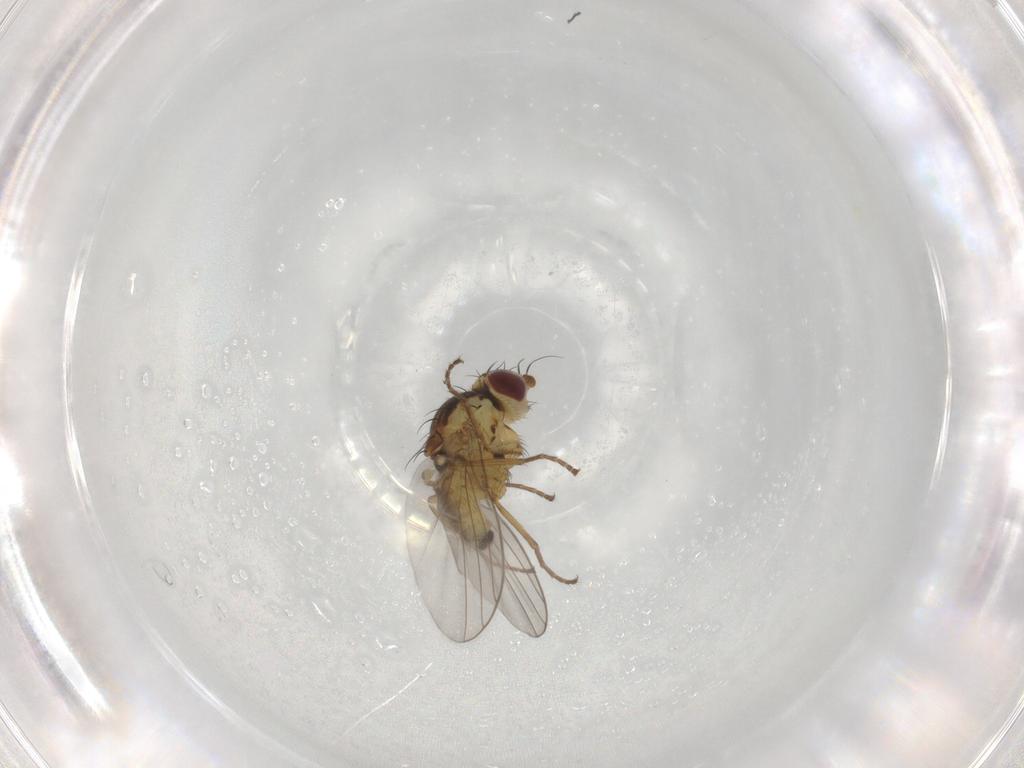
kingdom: Animalia
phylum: Arthropoda
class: Insecta
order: Diptera
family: Agromyzidae
